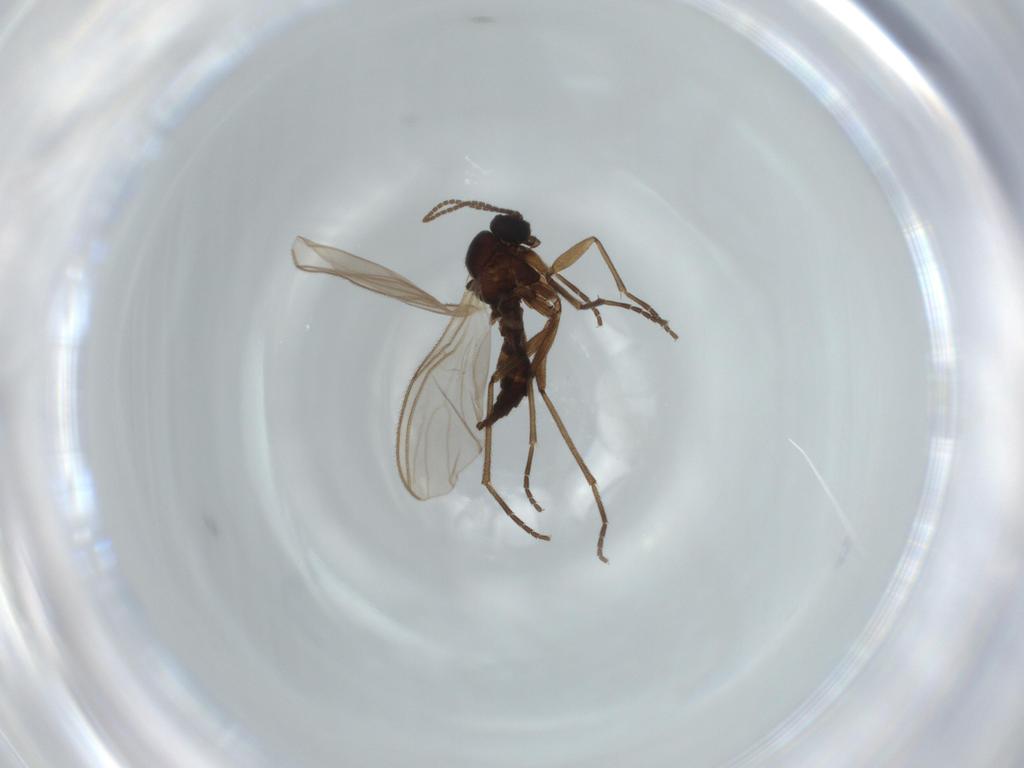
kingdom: Animalia
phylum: Arthropoda
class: Insecta
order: Diptera
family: Sciaridae
